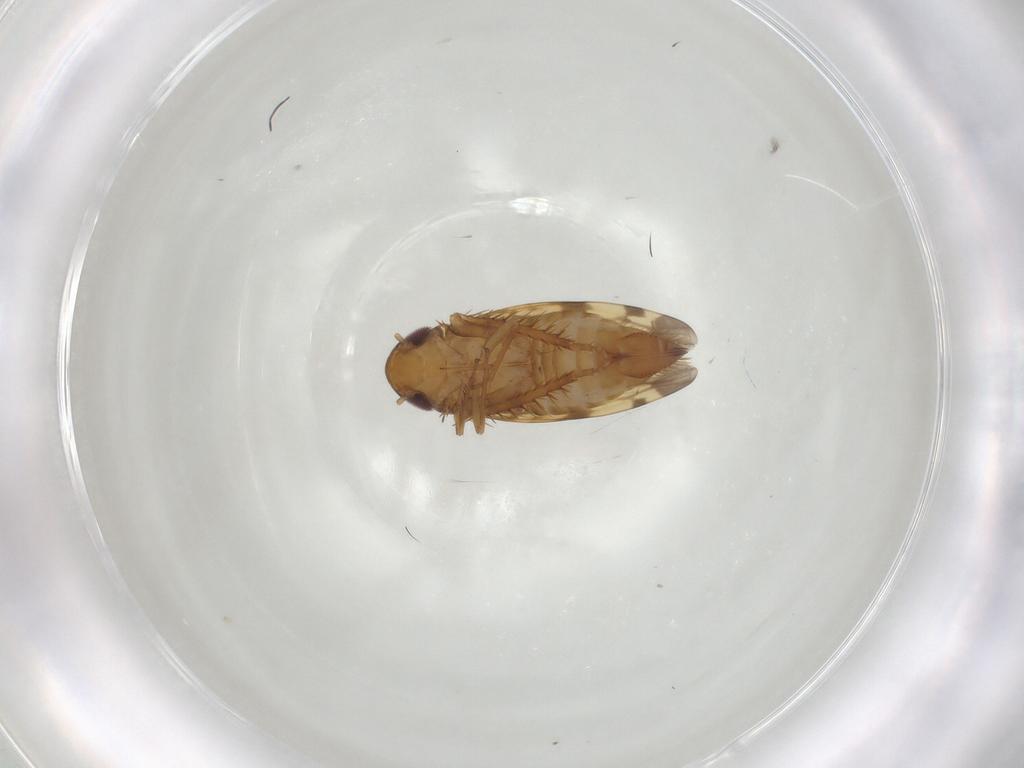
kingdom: Animalia
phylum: Arthropoda
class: Insecta
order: Hemiptera
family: Cicadellidae
